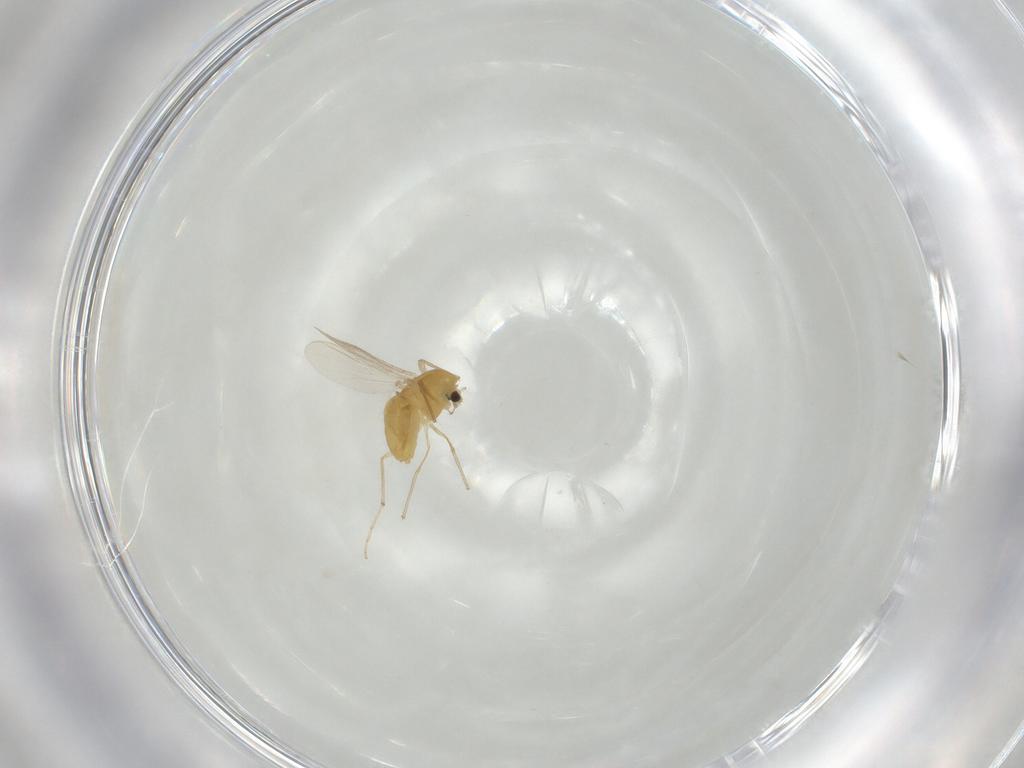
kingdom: Animalia
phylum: Arthropoda
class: Insecta
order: Diptera
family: Chironomidae
